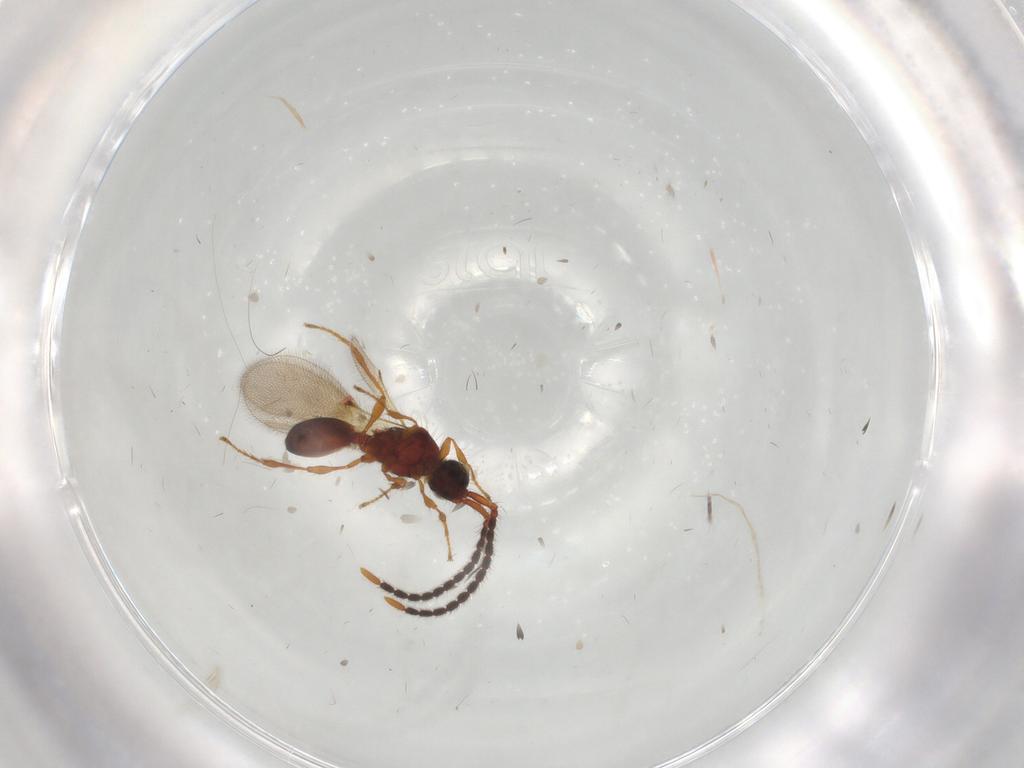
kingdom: Animalia
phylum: Arthropoda
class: Insecta
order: Hymenoptera
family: Diapriidae
